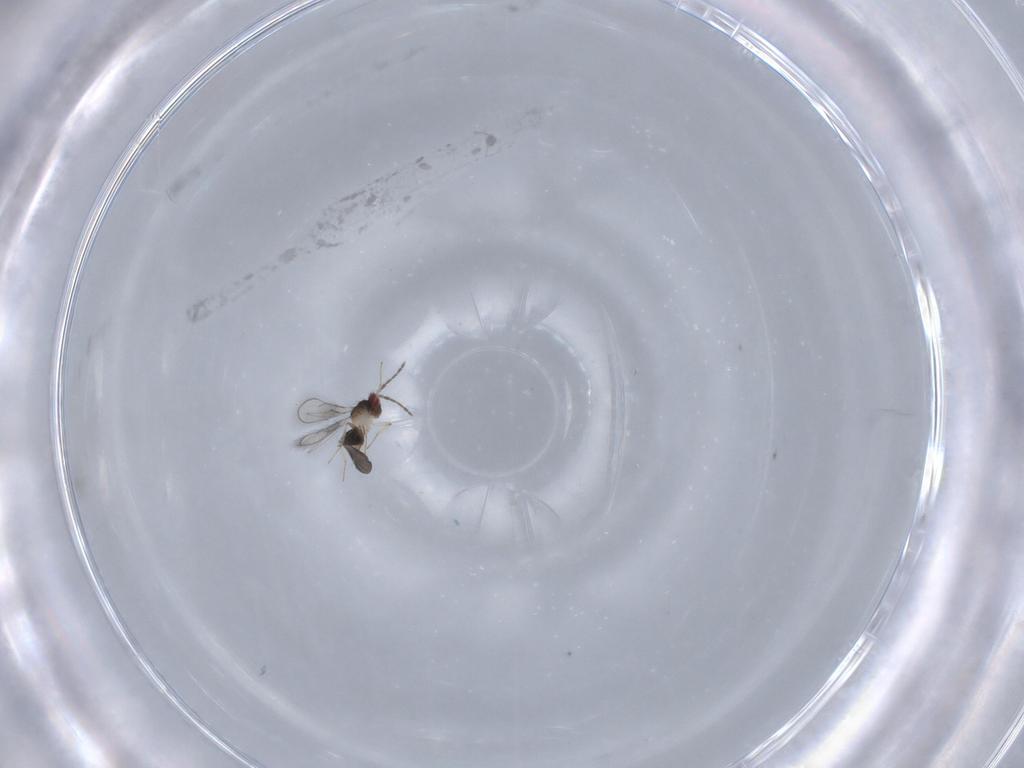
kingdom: Animalia
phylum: Arthropoda
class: Insecta
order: Diptera
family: Sciaridae
